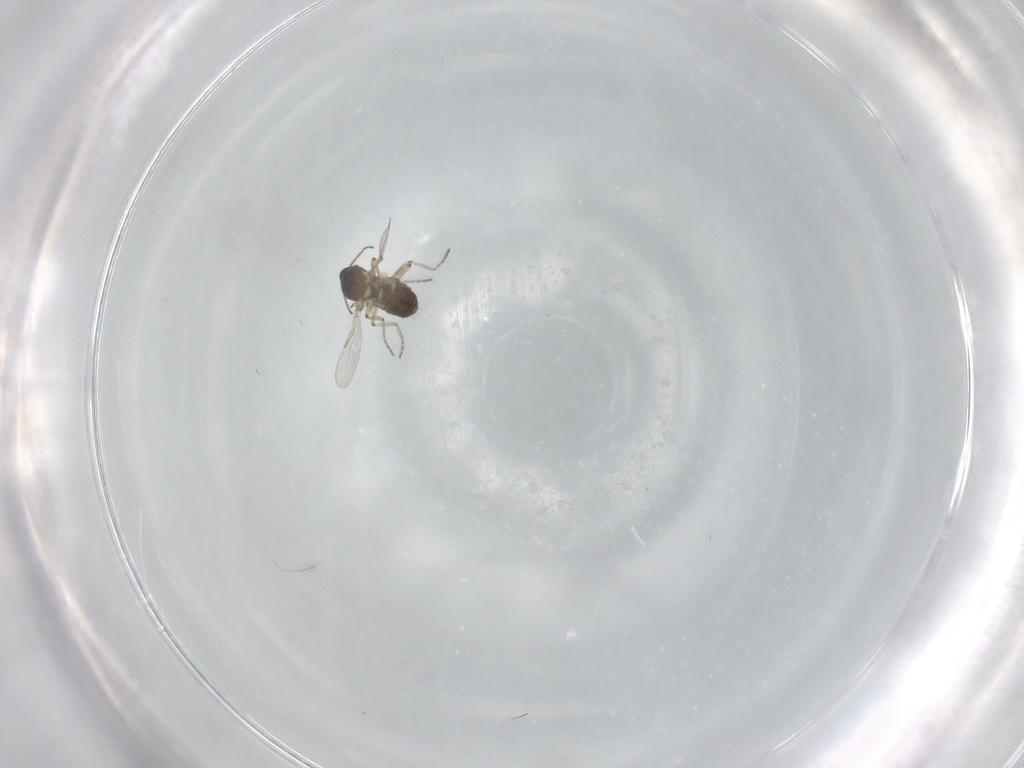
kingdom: Animalia
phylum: Arthropoda
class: Insecta
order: Diptera
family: Ceratopogonidae
